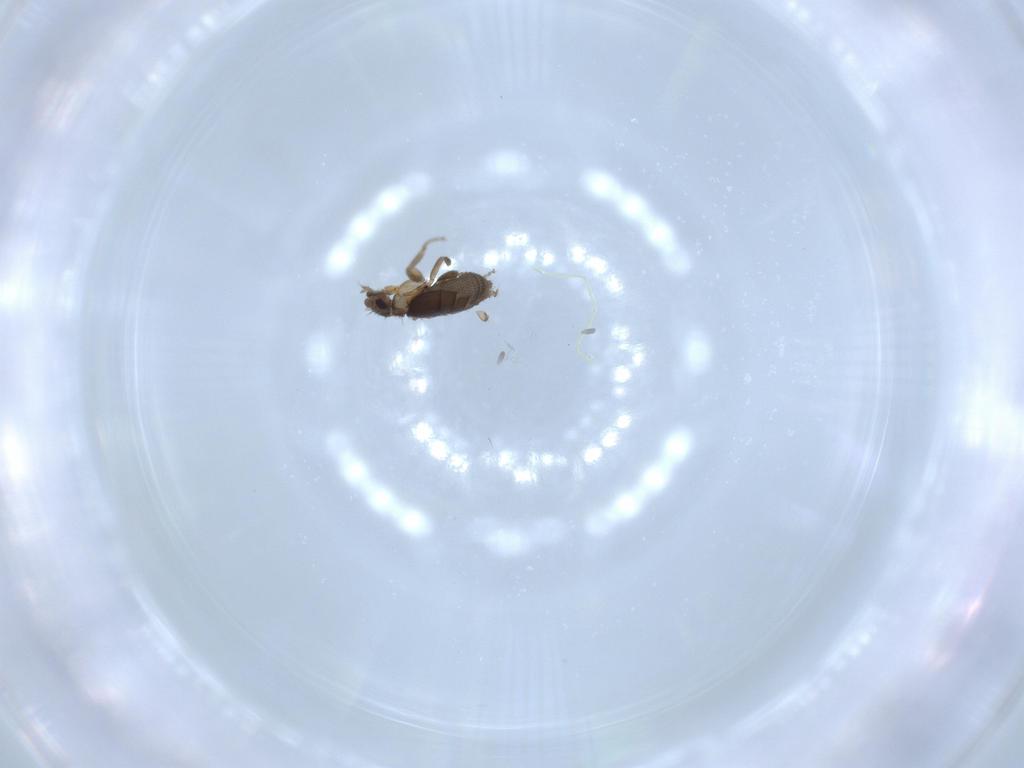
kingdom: Animalia
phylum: Arthropoda
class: Insecta
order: Diptera
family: Phoridae
